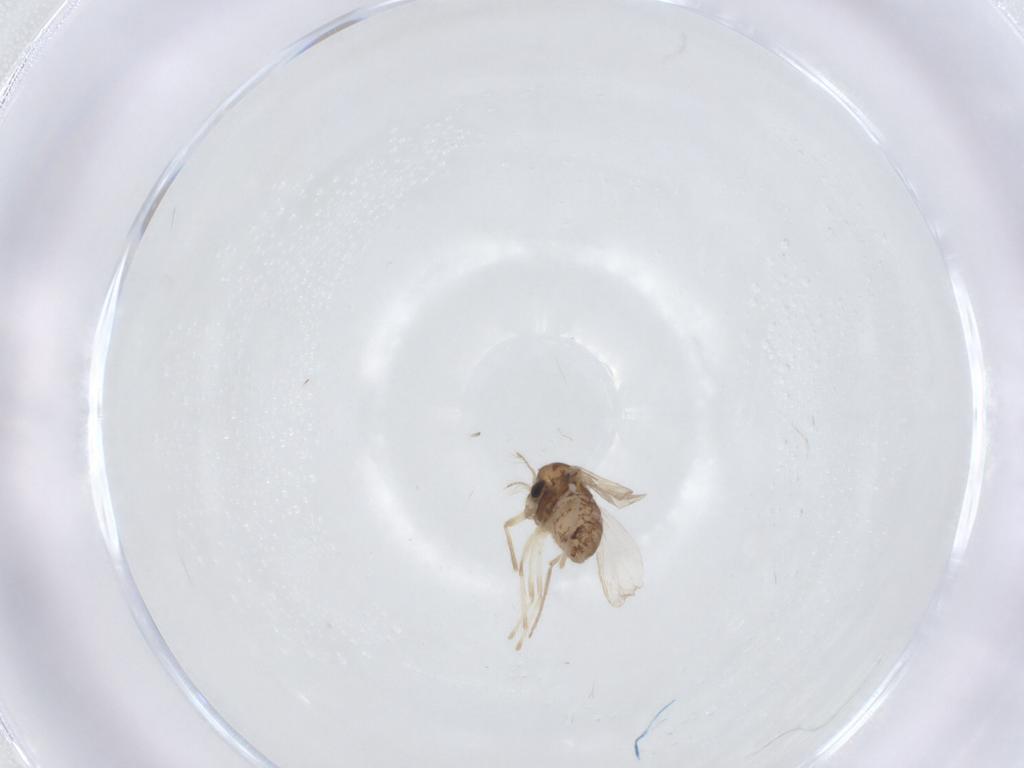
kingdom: Animalia
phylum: Arthropoda
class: Insecta
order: Diptera
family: Chironomidae
